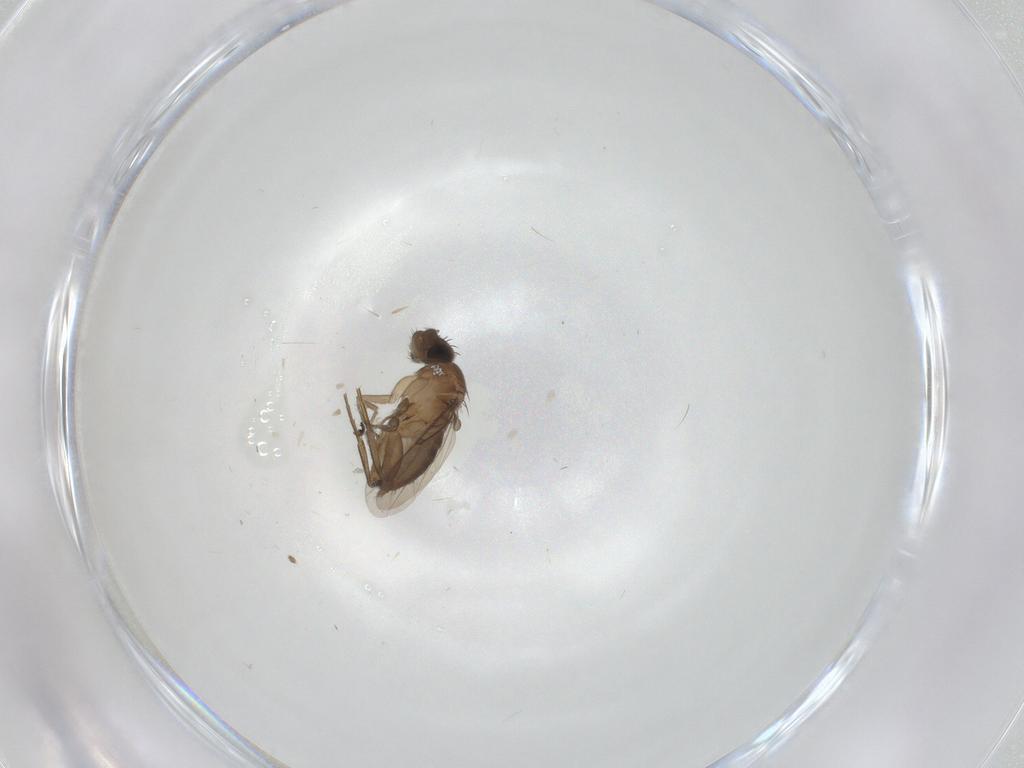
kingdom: Animalia
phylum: Arthropoda
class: Insecta
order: Diptera
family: Phoridae
